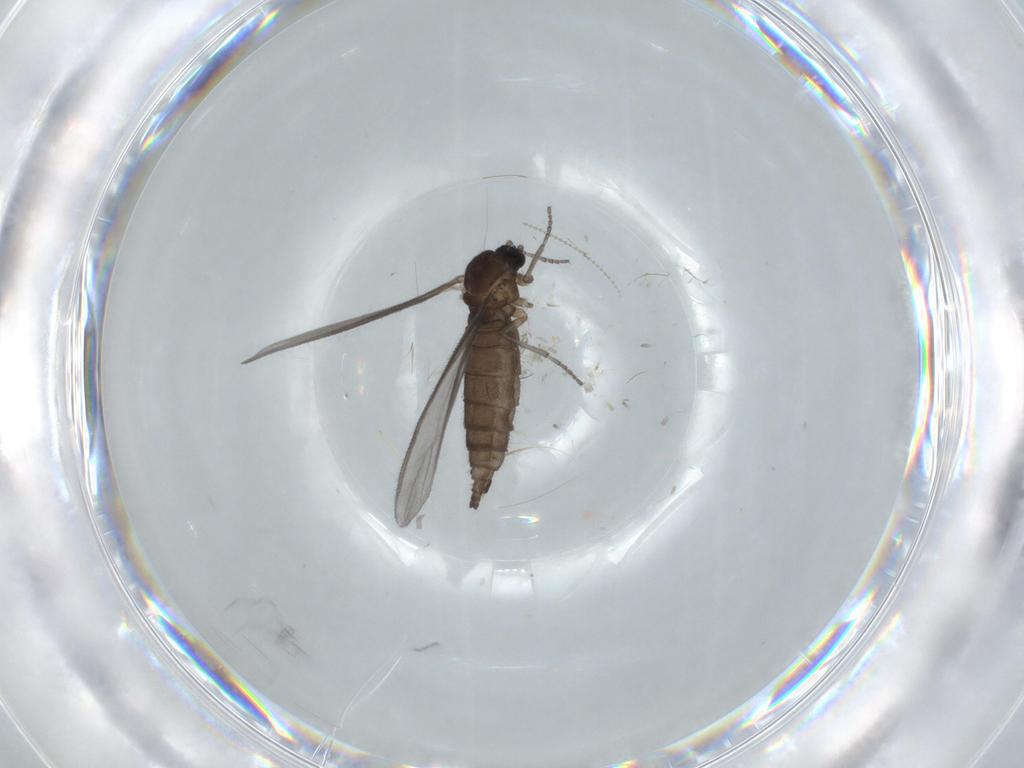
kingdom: Animalia
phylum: Arthropoda
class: Insecta
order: Diptera
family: Sciaridae
